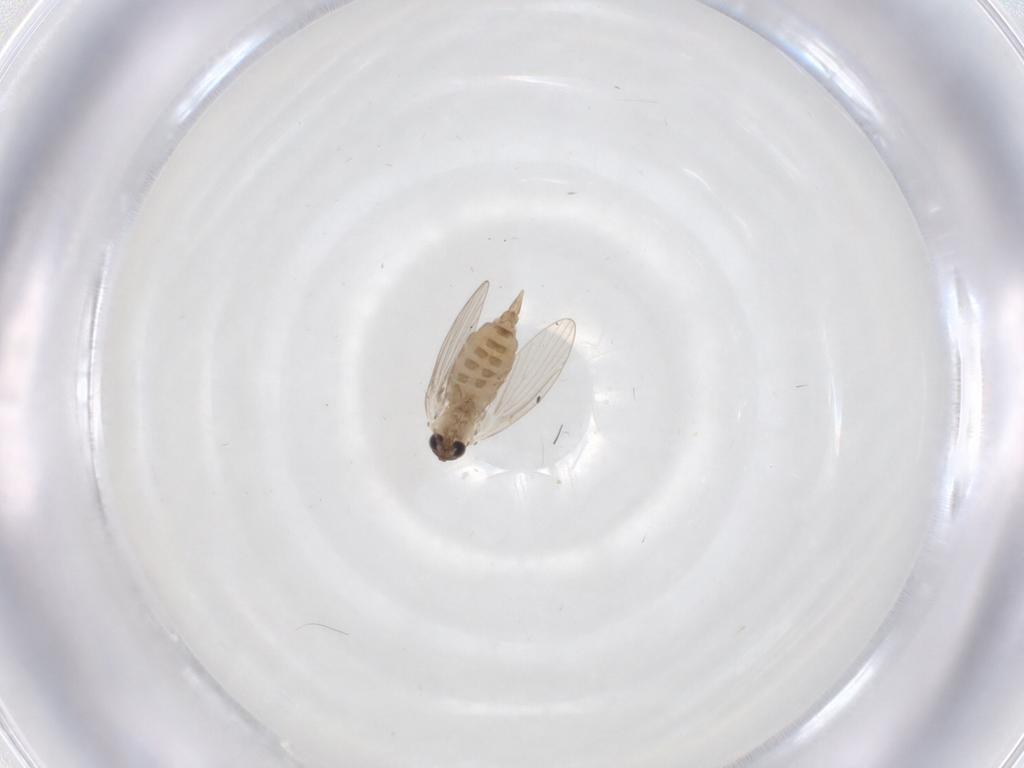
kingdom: Animalia
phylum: Arthropoda
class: Insecta
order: Diptera
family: Psychodidae
